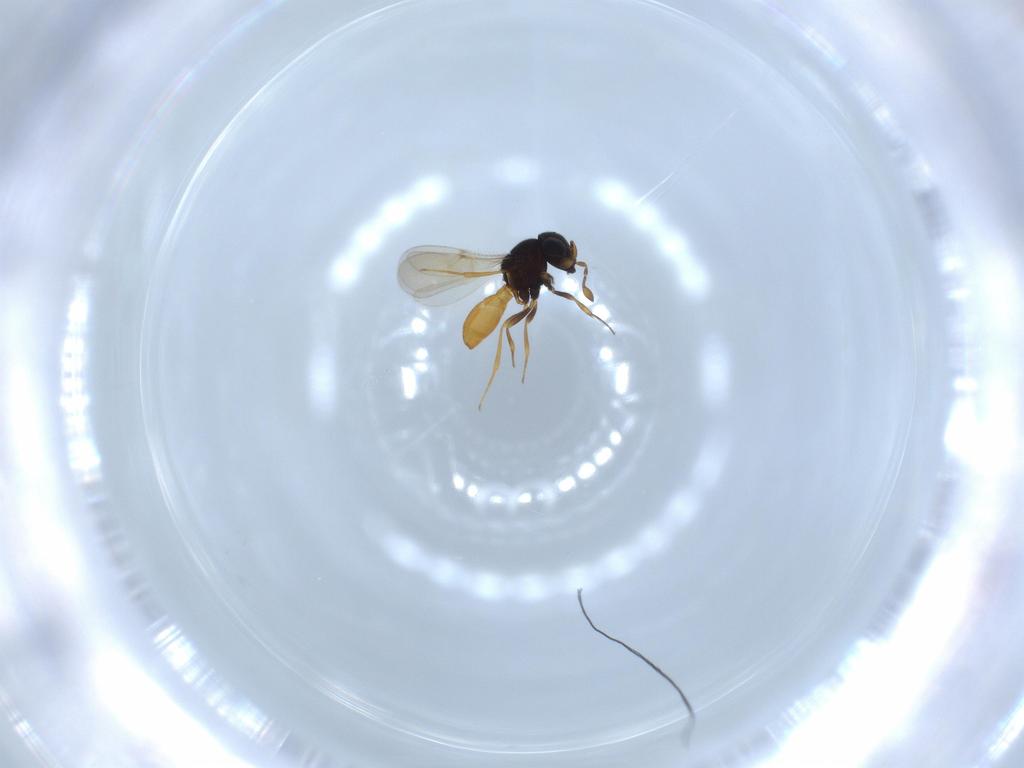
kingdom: Animalia
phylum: Arthropoda
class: Insecta
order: Hymenoptera
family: Scelionidae
